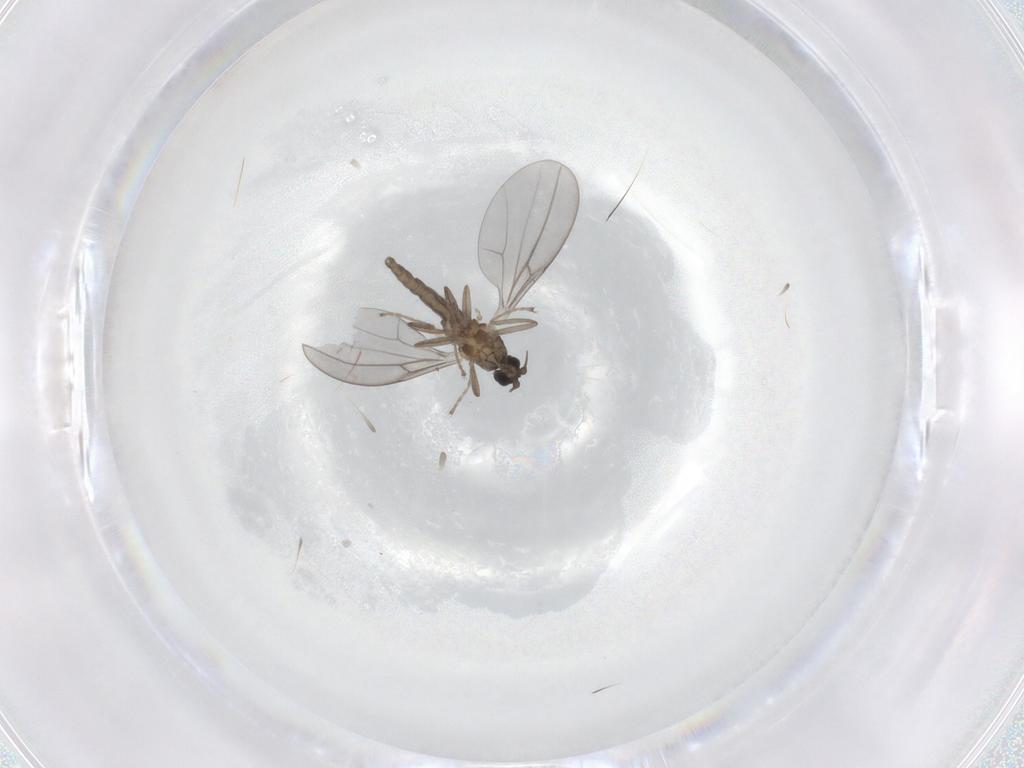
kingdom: Animalia
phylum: Arthropoda
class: Insecta
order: Diptera
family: Cecidomyiidae
